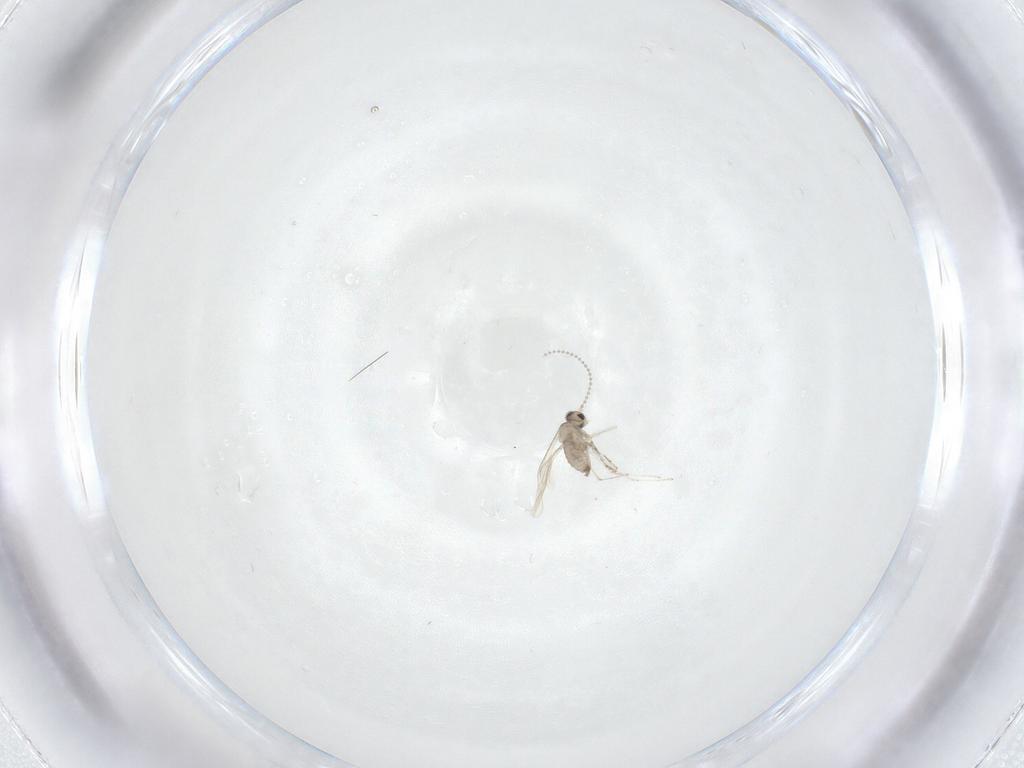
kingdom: Animalia
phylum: Arthropoda
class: Insecta
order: Diptera
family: Cecidomyiidae
